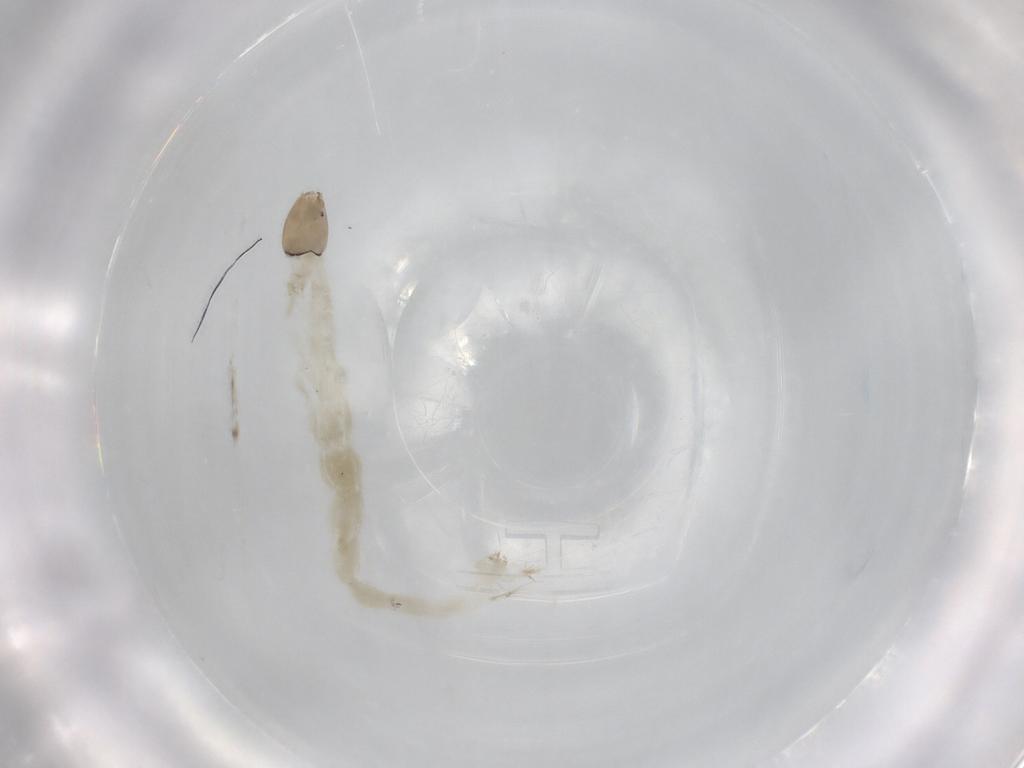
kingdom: Animalia
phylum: Arthropoda
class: Insecta
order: Diptera
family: Chironomidae
